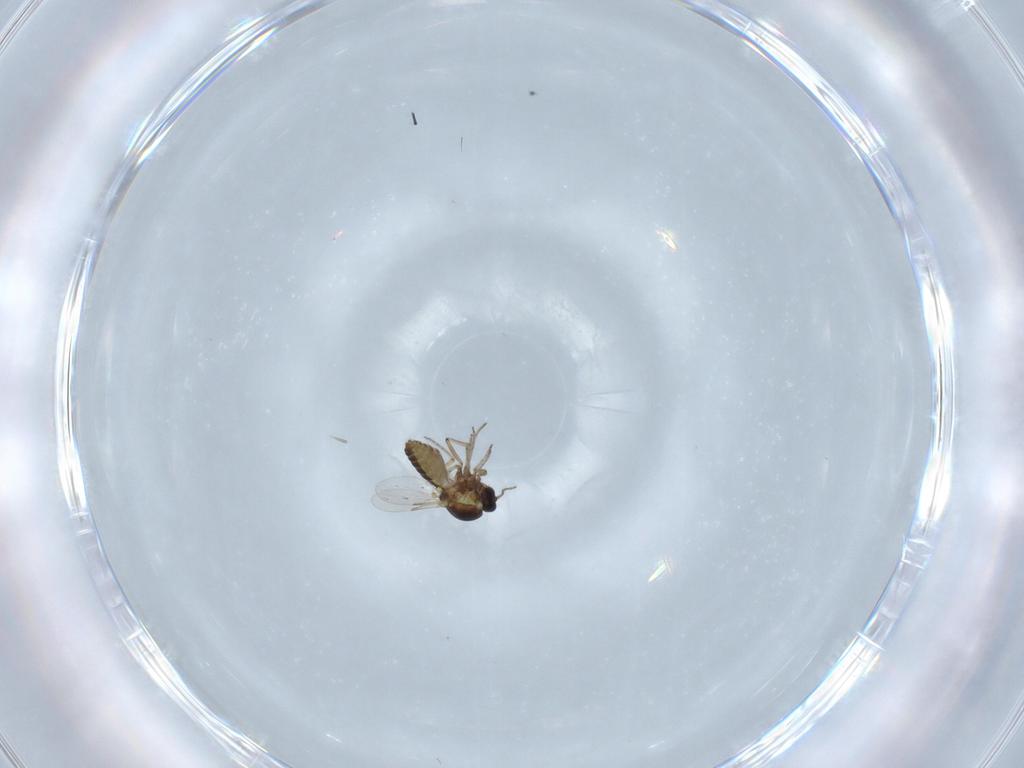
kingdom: Animalia
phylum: Arthropoda
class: Insecta
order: Diptera
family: Ceratopogonidae
